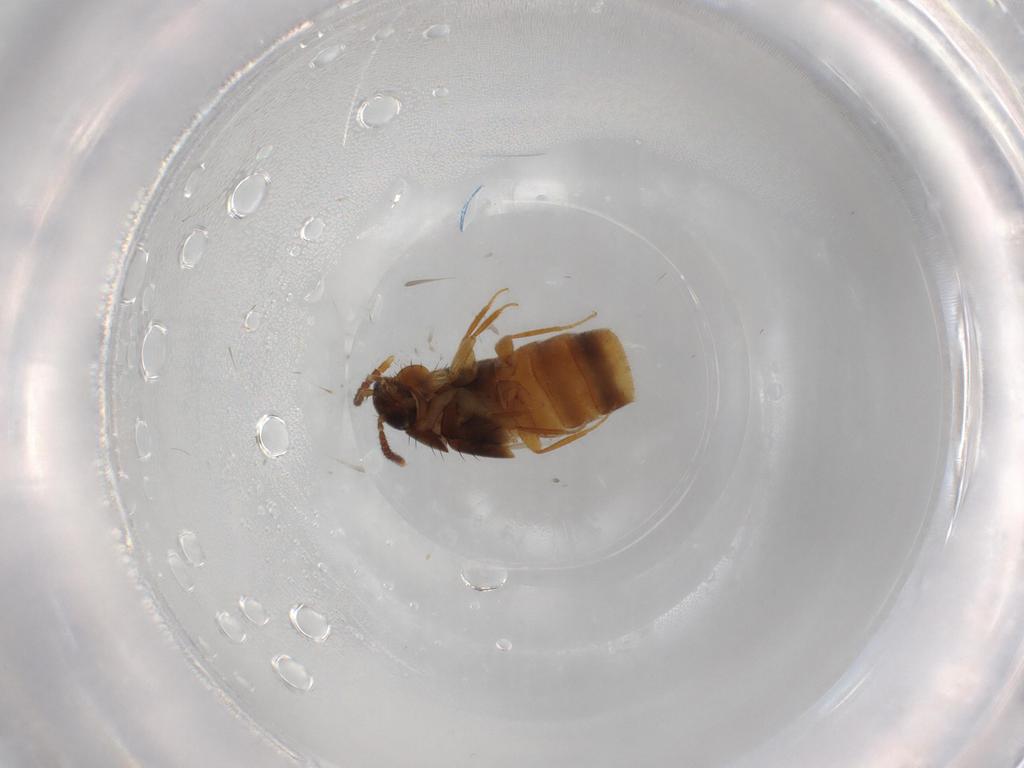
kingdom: Animalia
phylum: Arthropoda
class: Insecta
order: Coleoptera
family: Staphylinidae
